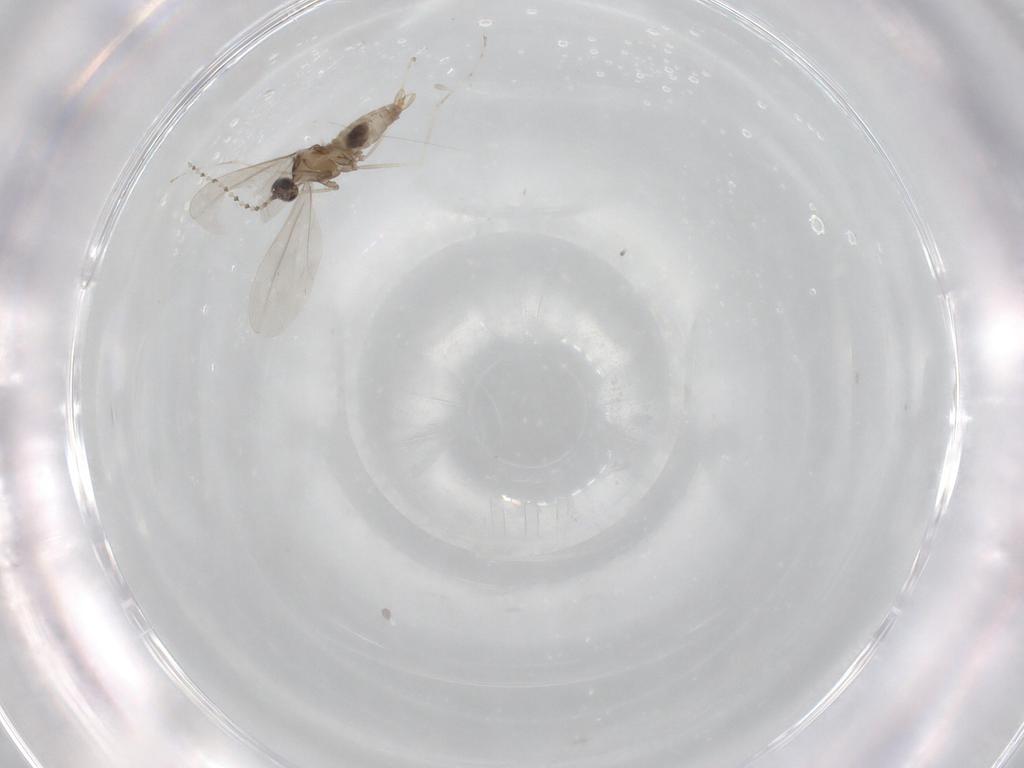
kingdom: Animalia
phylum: Arthropoda
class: Insecta
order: Diptera
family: Cecidomyiidae
